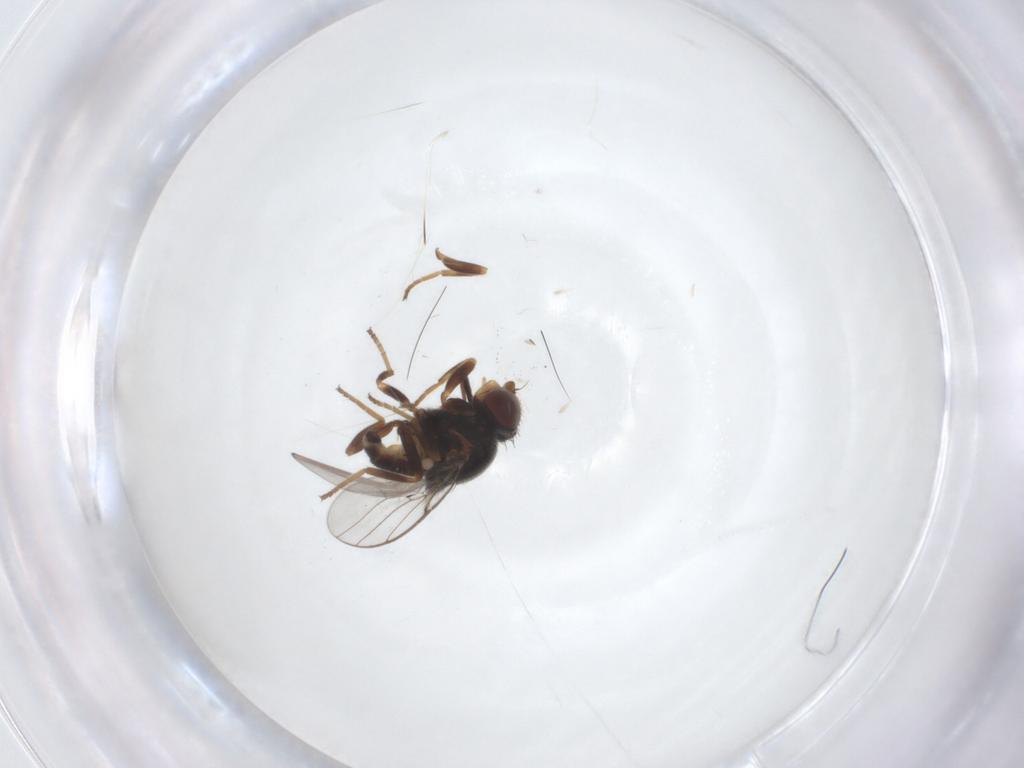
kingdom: Animalia
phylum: Arthropoda
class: Insecta
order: Diptera
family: Chloropidae
